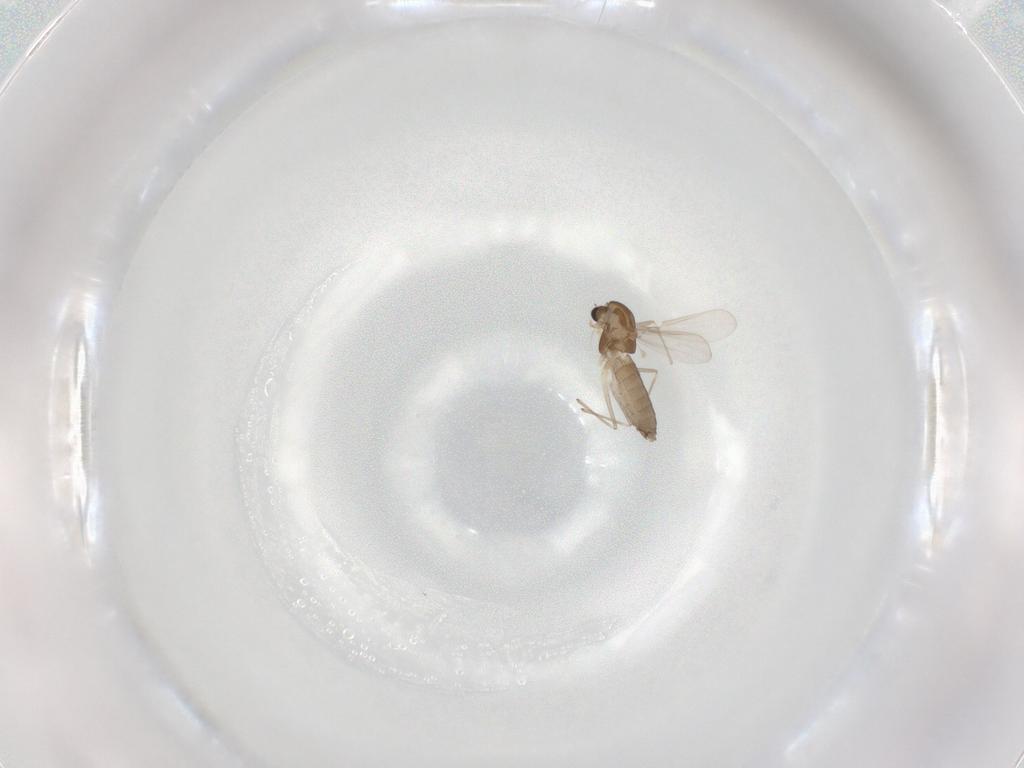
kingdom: Animalia
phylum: Arthropoda
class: Insecta
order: Diptera
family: Chironomidae
